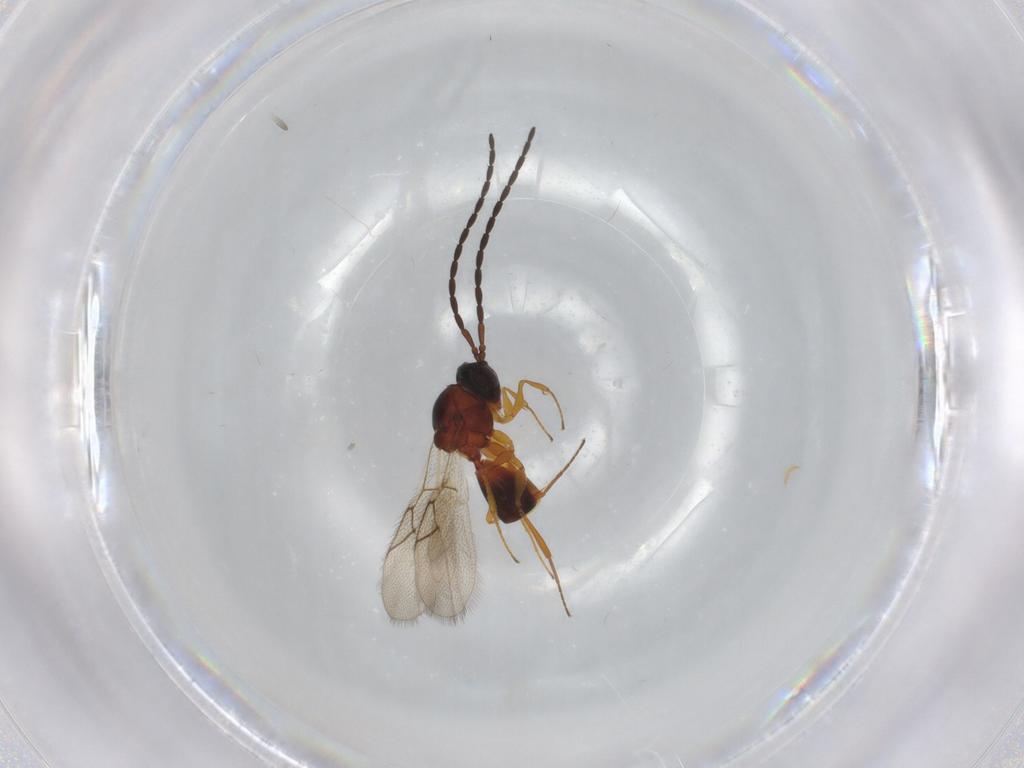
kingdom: Animalia
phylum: Arthropoda
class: Insecta
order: Hymenoptera
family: Figitidae
